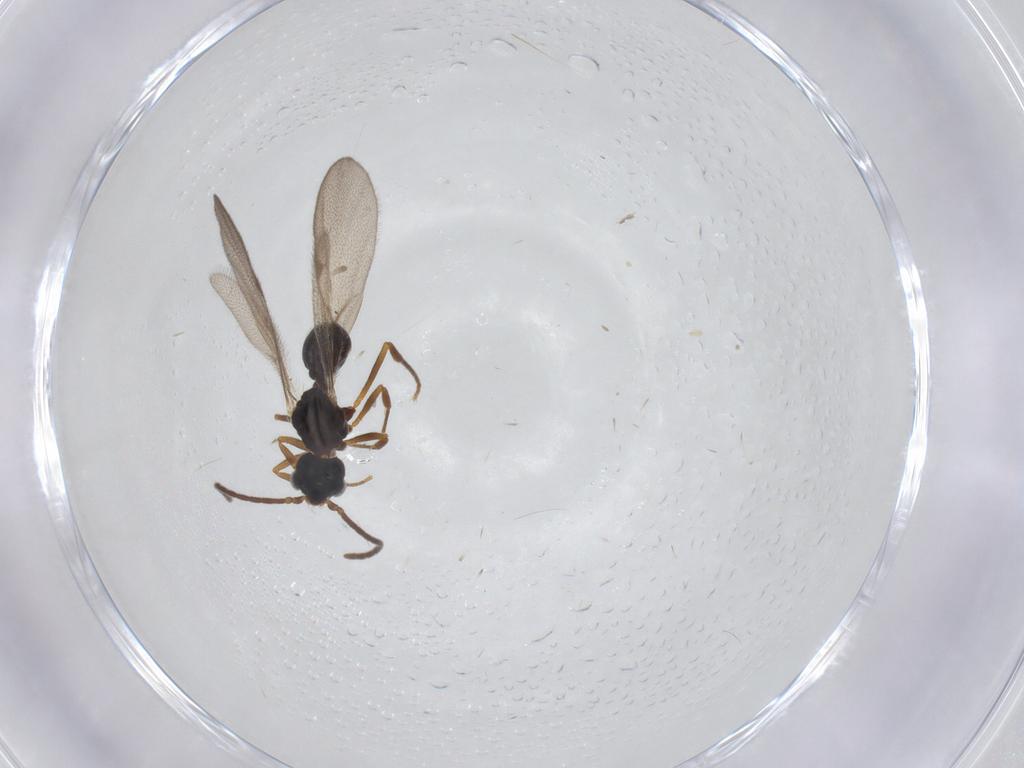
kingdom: Animalia
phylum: Arthropoda
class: Insecta
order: Hymenoptera
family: Formicidae
